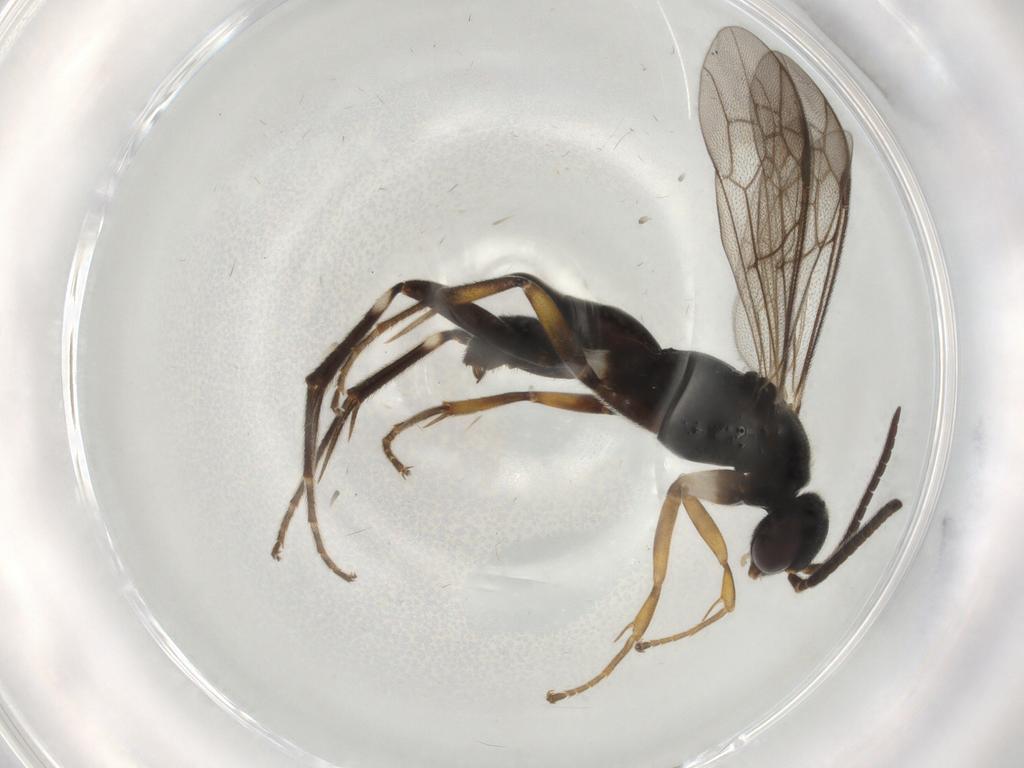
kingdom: Animalia
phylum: Arthropoda
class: Insecta
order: Hymenoptera
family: Pompilidae
